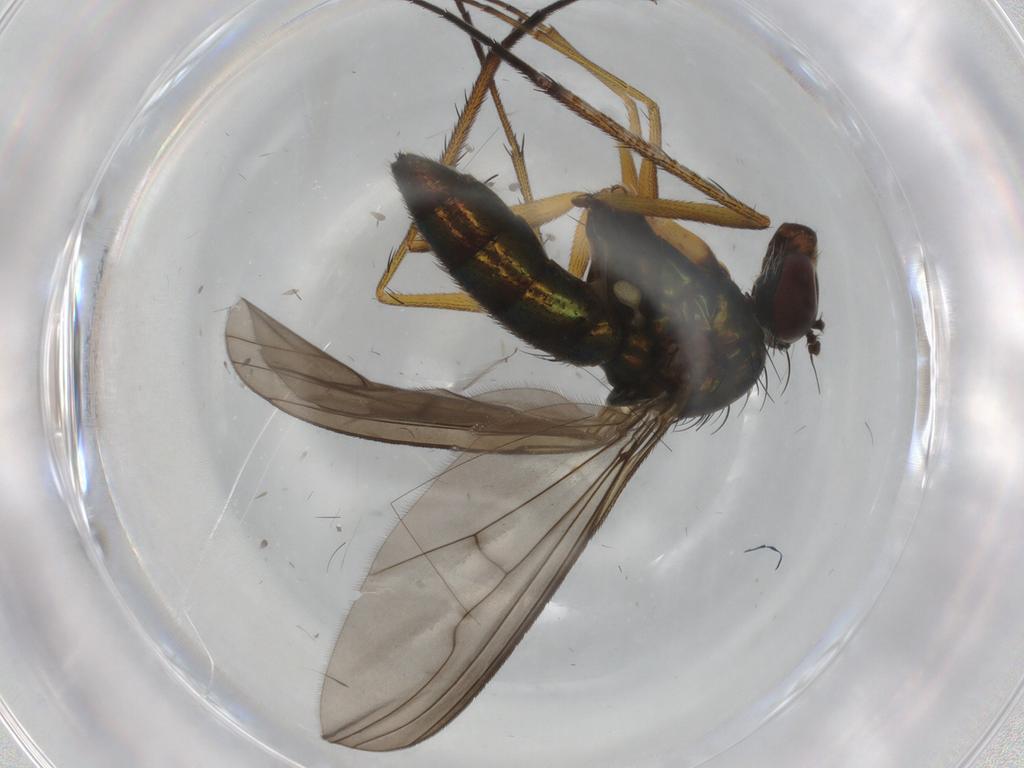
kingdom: Animalia
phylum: Arthropoda
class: Insecta
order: Diptera
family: Dolichopodidae
